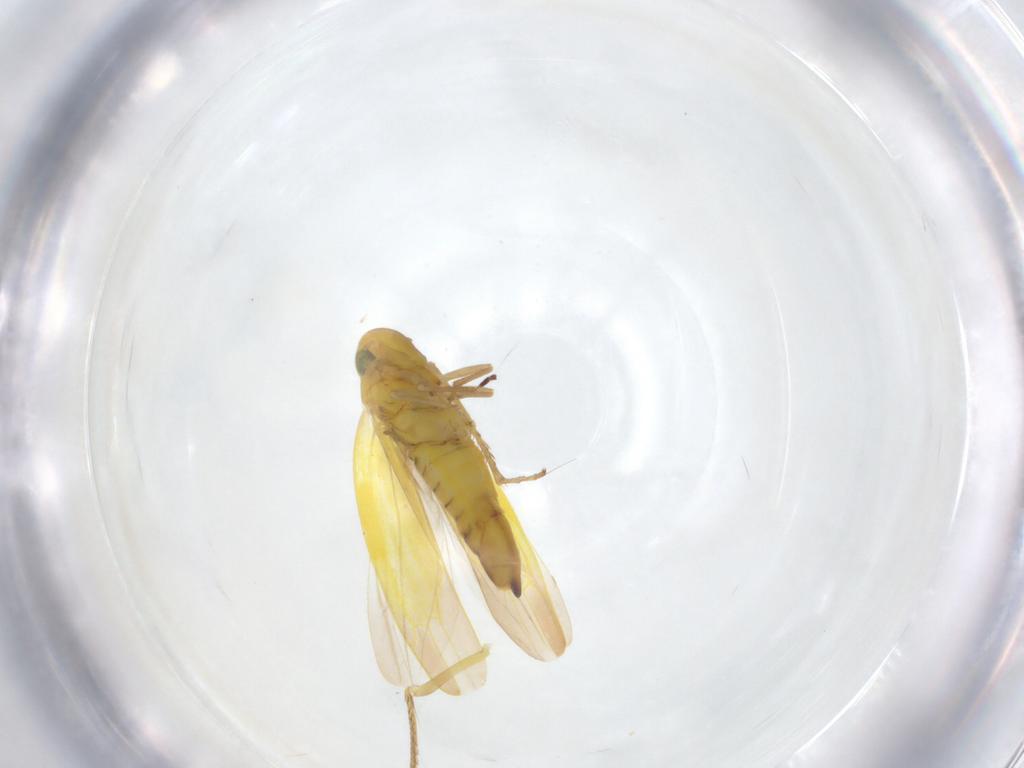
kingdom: Animalia
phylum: Arthropoda
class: Insecta
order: Hemiptera
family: Cicadellidae
